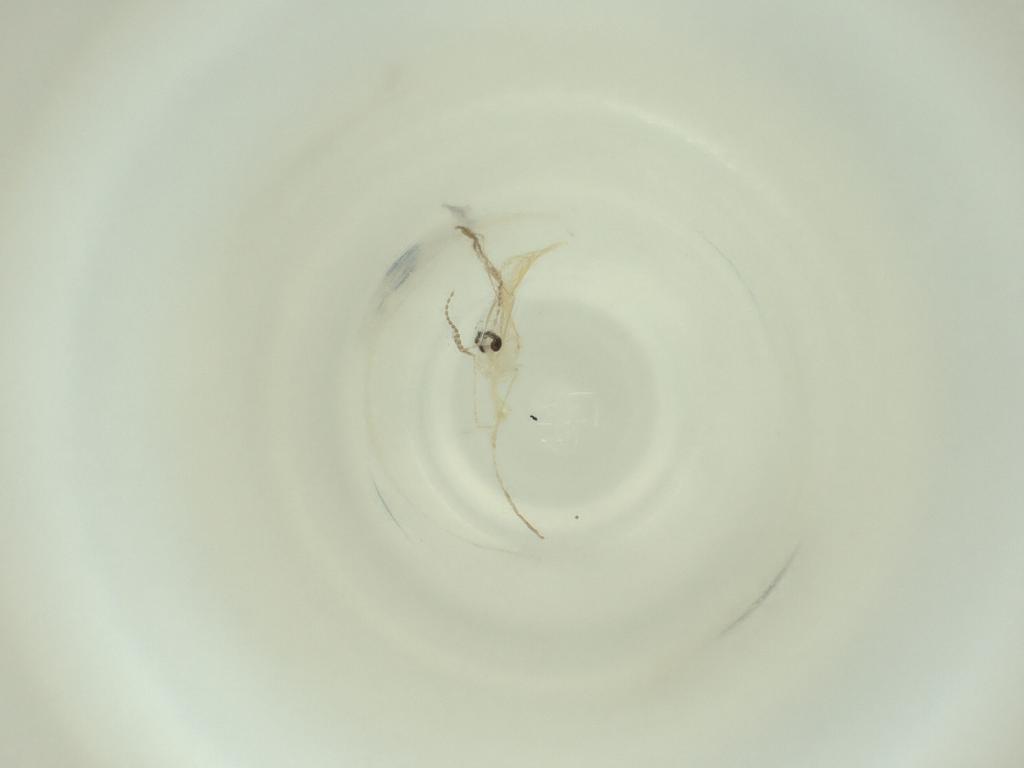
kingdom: Animalia
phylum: Arthropoda
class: Insecta
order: Diptera
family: Cecidomyiidae
